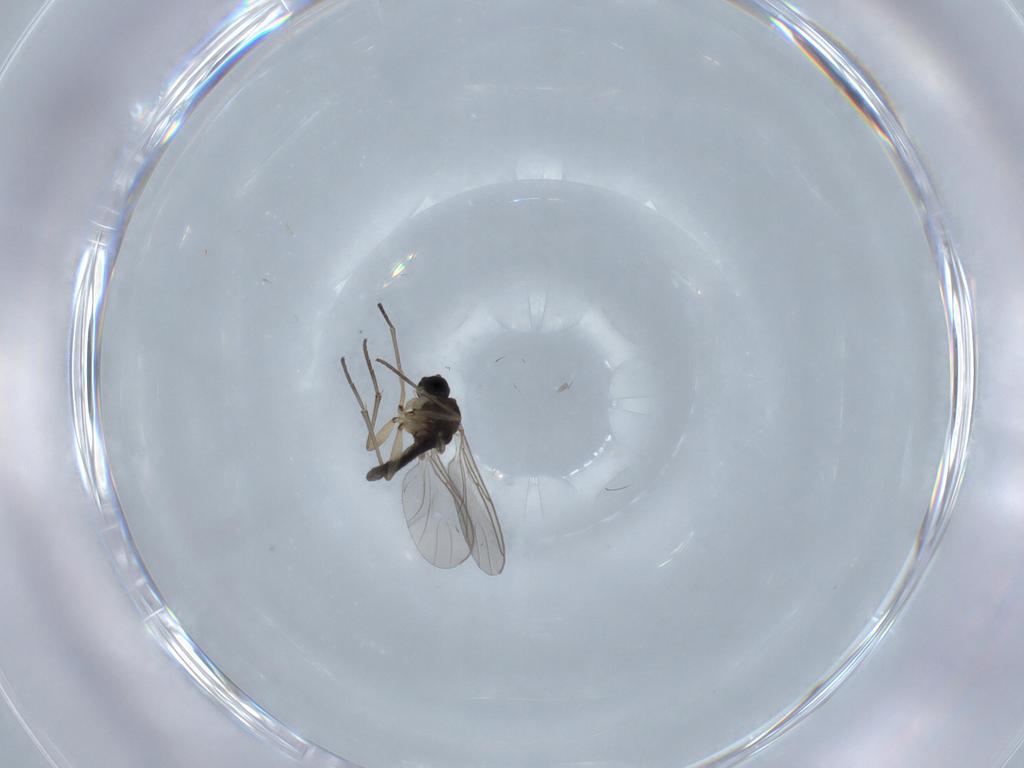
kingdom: Animalia
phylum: Arthropoda
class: Insecta
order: Diptera
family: Sciaridae
